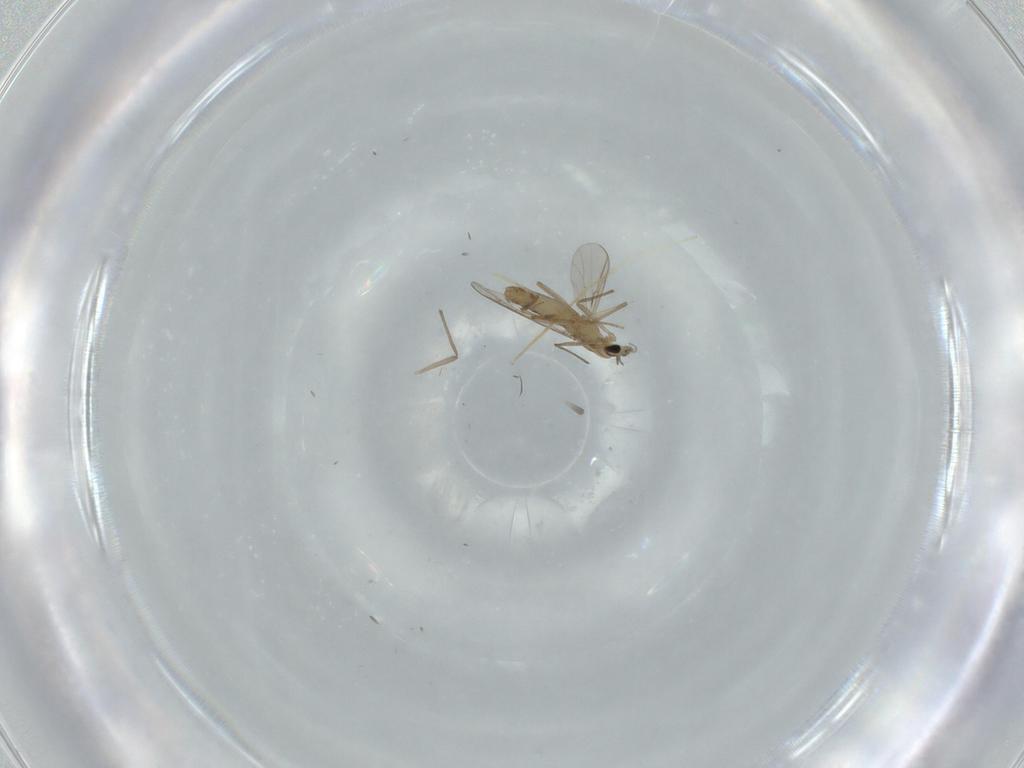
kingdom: Animalia
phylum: Arthropoda
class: Insecta
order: Diptera
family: Chironomidae
